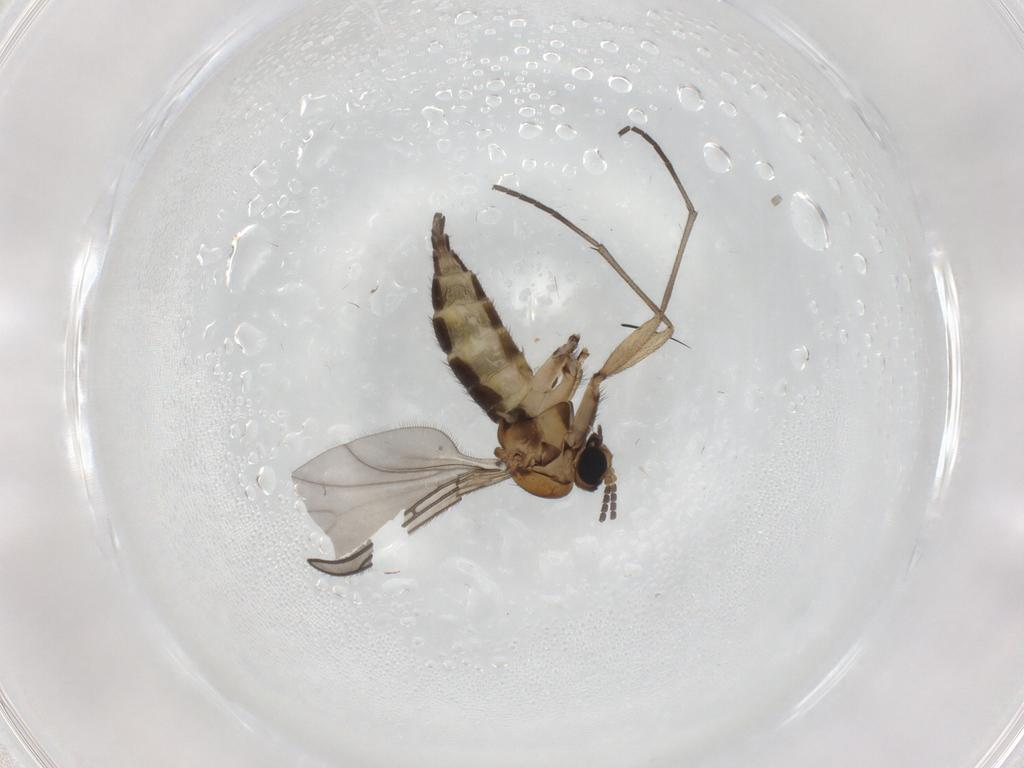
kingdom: Animalia
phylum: Arthropoda
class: Insecta
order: Diptera
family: Sciaridae
